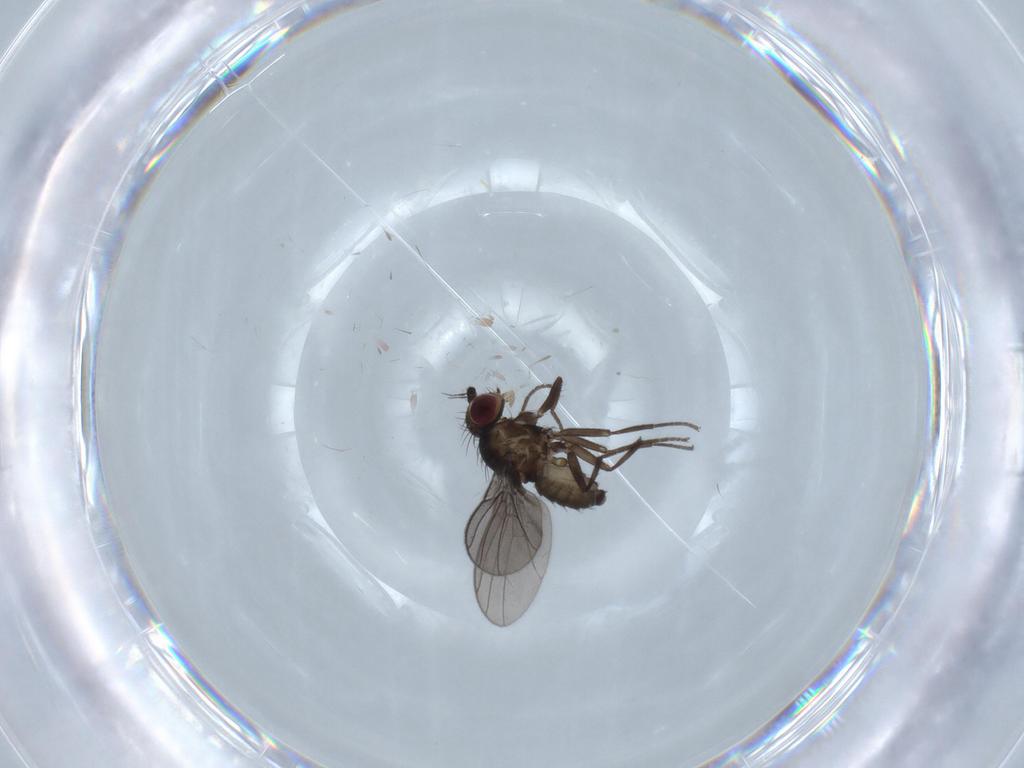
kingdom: Animalia
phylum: Arthropoda
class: Insecta
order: Diptera
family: Agromyzidae
